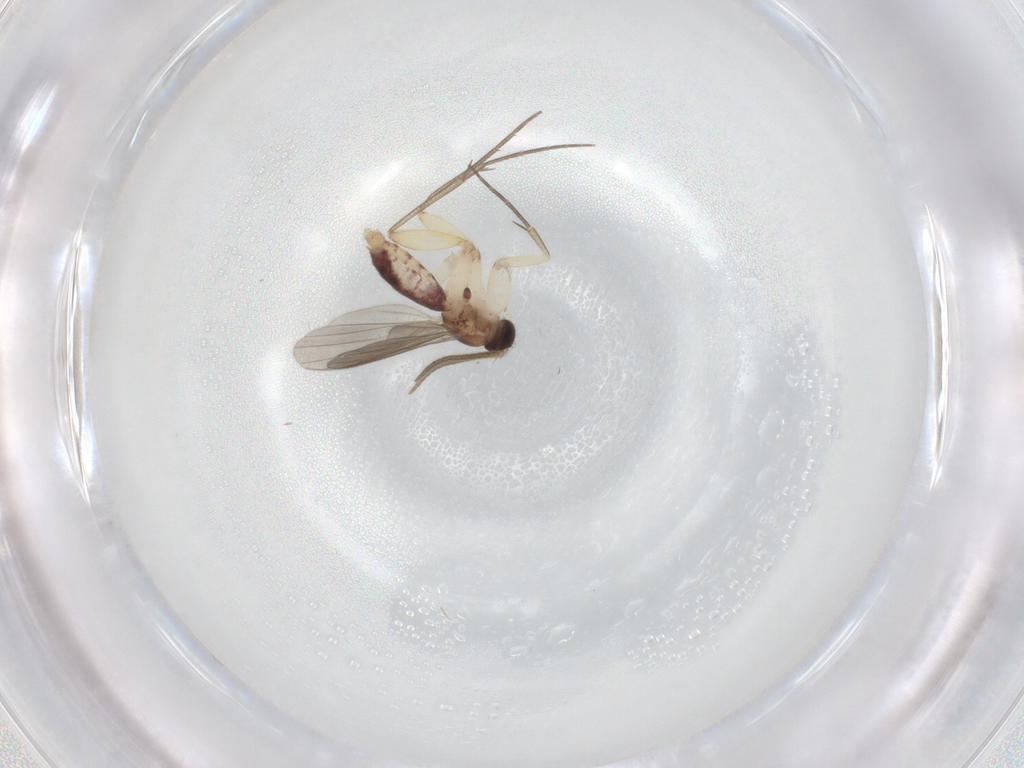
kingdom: Animalia
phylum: Arthropoda
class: Insecta
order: Diptera
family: Mycetophilidae
